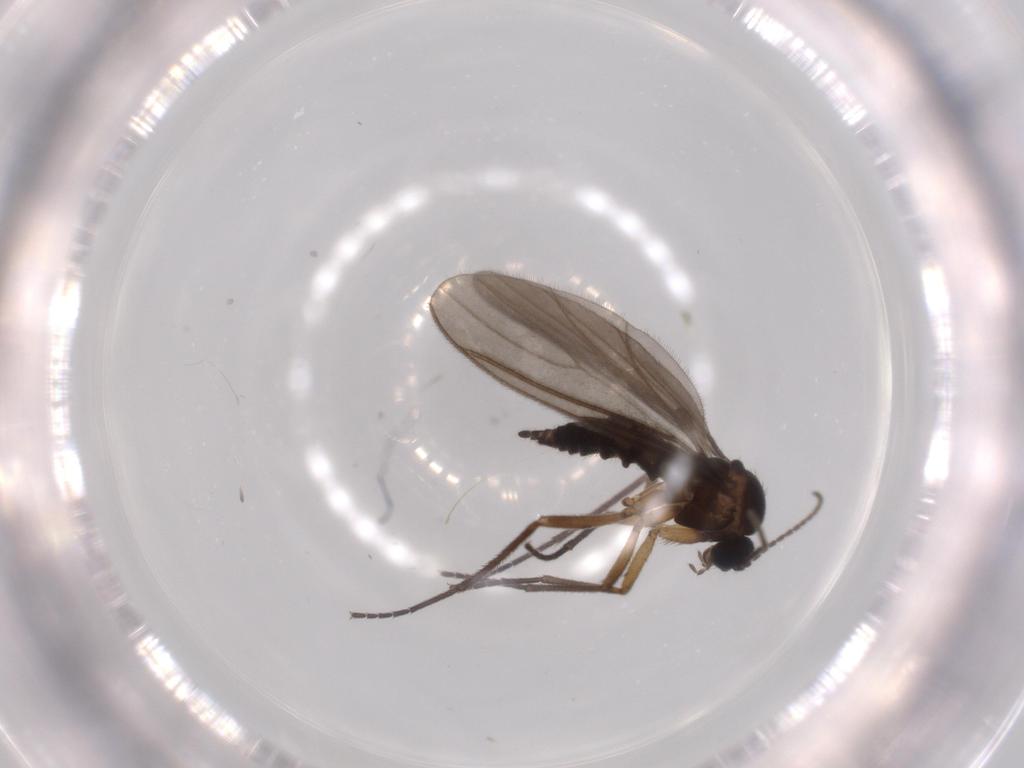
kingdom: Animalia
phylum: Arthropoda
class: Insecta
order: Diptera
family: Sciaridae
